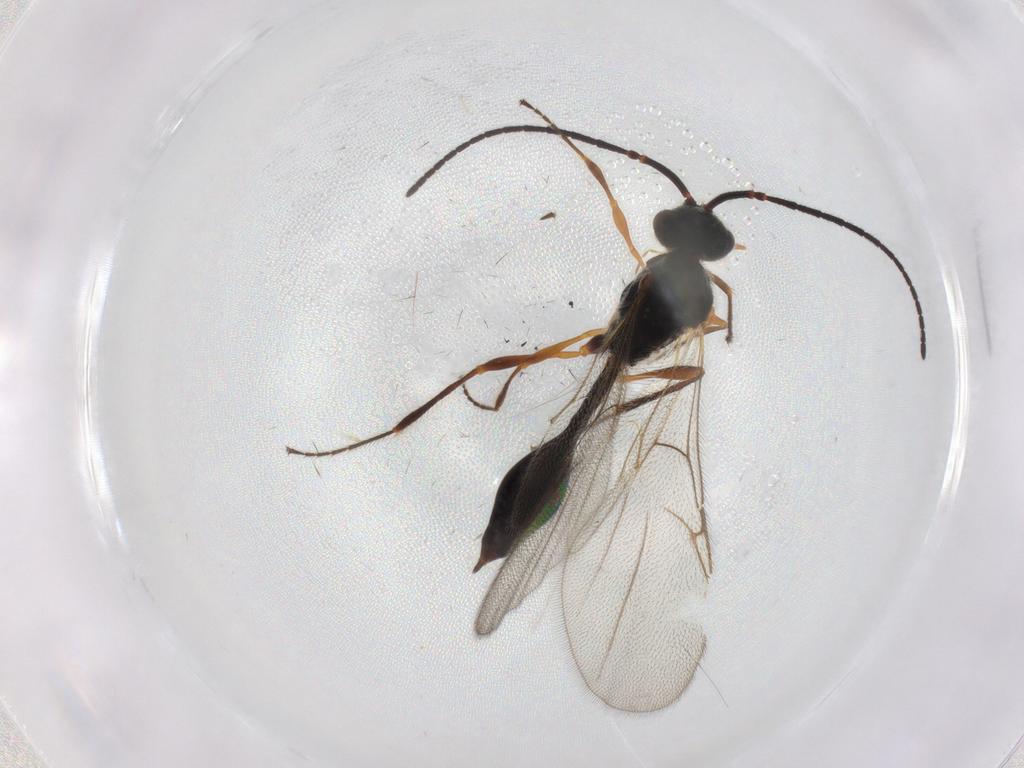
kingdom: Animalia
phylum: Arthropoda
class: Insecta
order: Hymenoptera
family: Diapriidae
